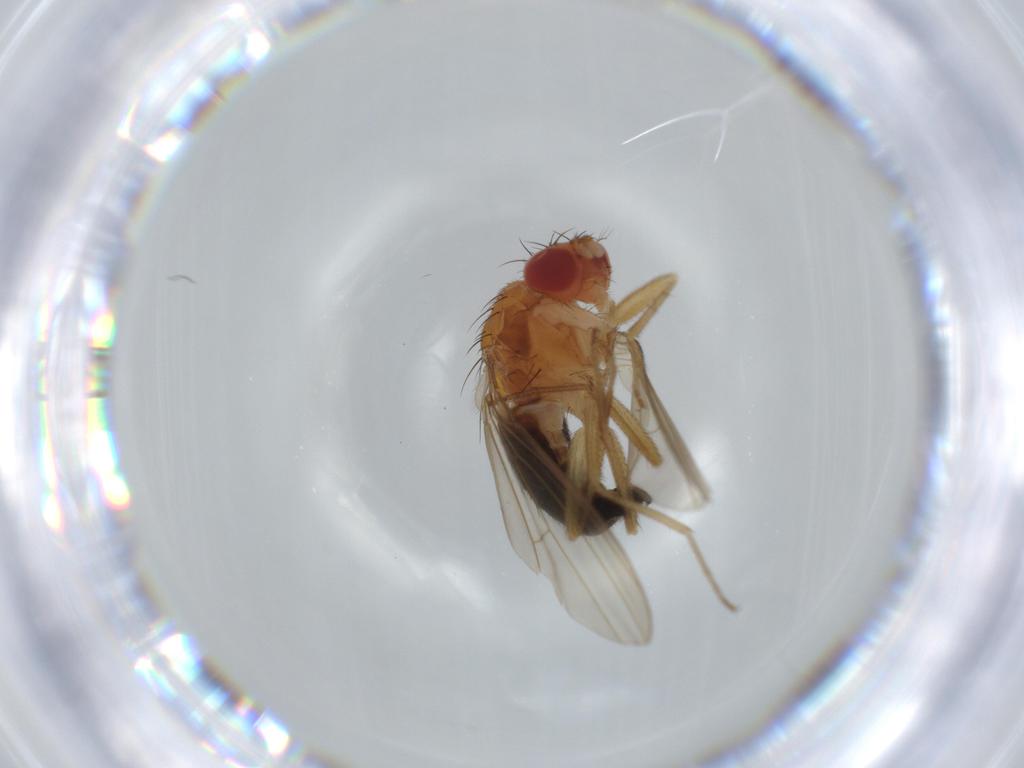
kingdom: Animalia
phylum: Arthropoda
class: Insecta
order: Diptera
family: Drosophilidae
